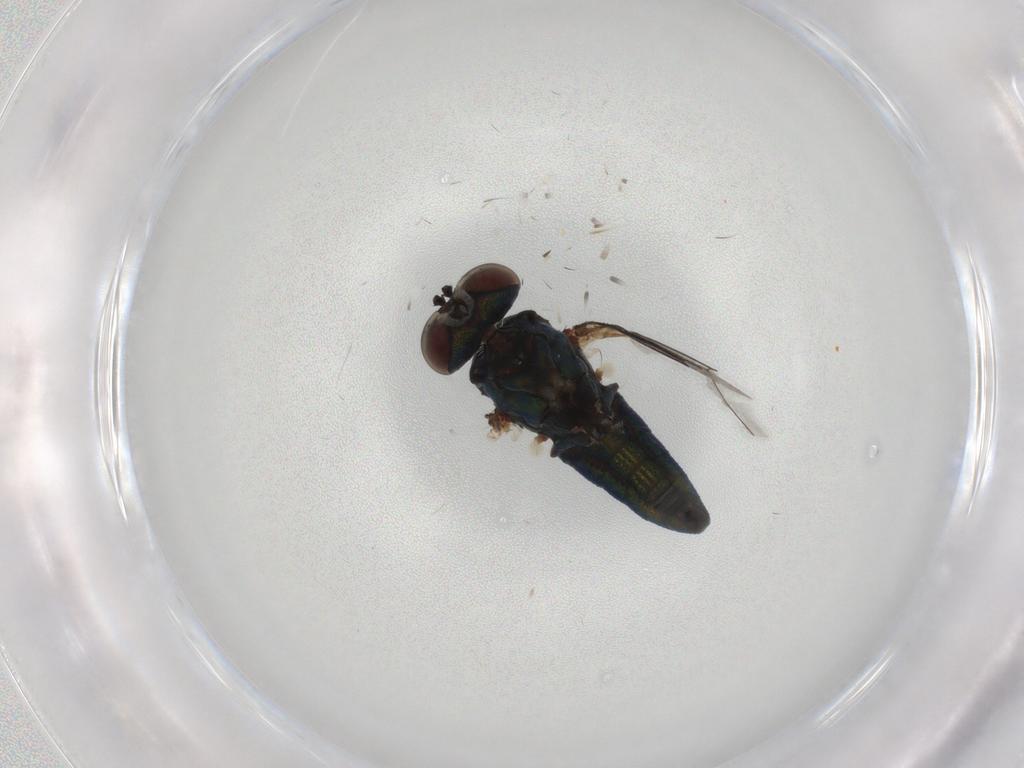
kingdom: Animalia
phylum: Arthropoda
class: Insecta
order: Diptera
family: Dolichopodidae
